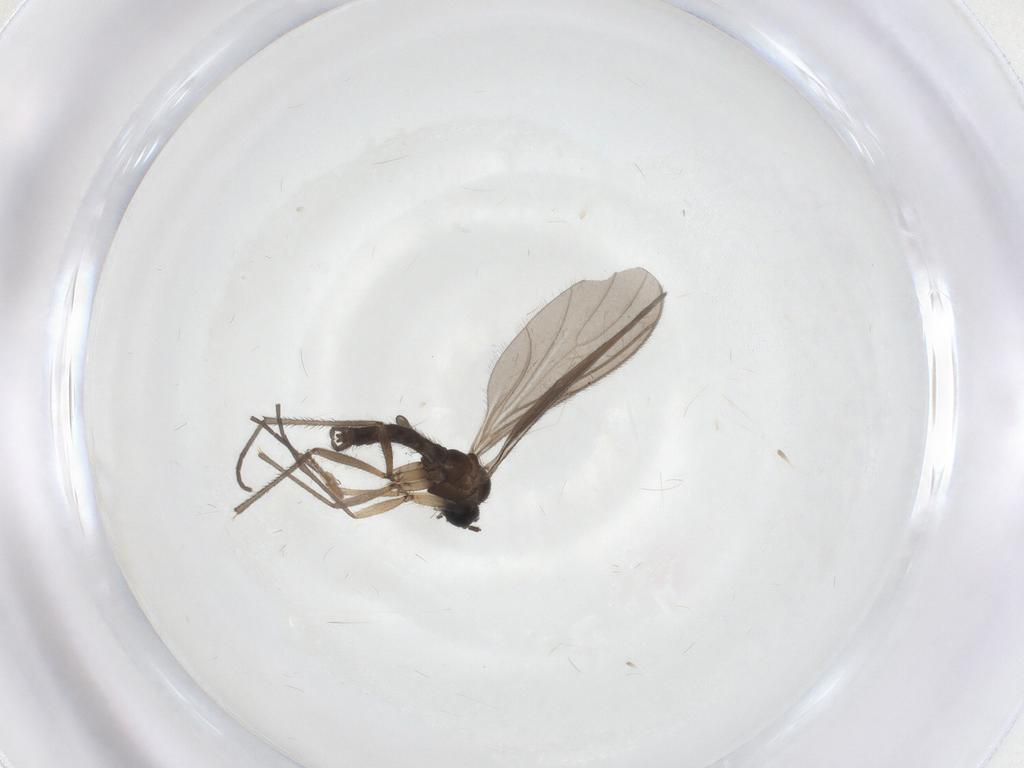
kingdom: Animalia
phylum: Arthropoda
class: Insecta
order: Diptera
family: Sciaridae
